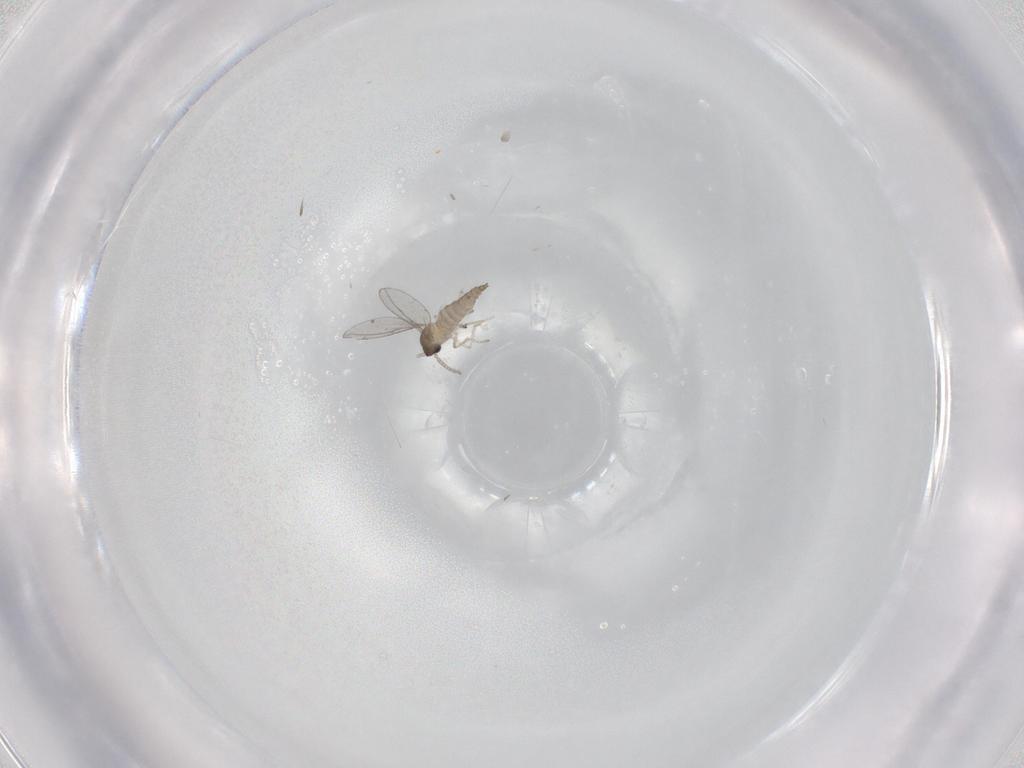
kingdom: Animalia
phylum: Arthropoda
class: Insecta
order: Diptera
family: Cecidomyiidae
